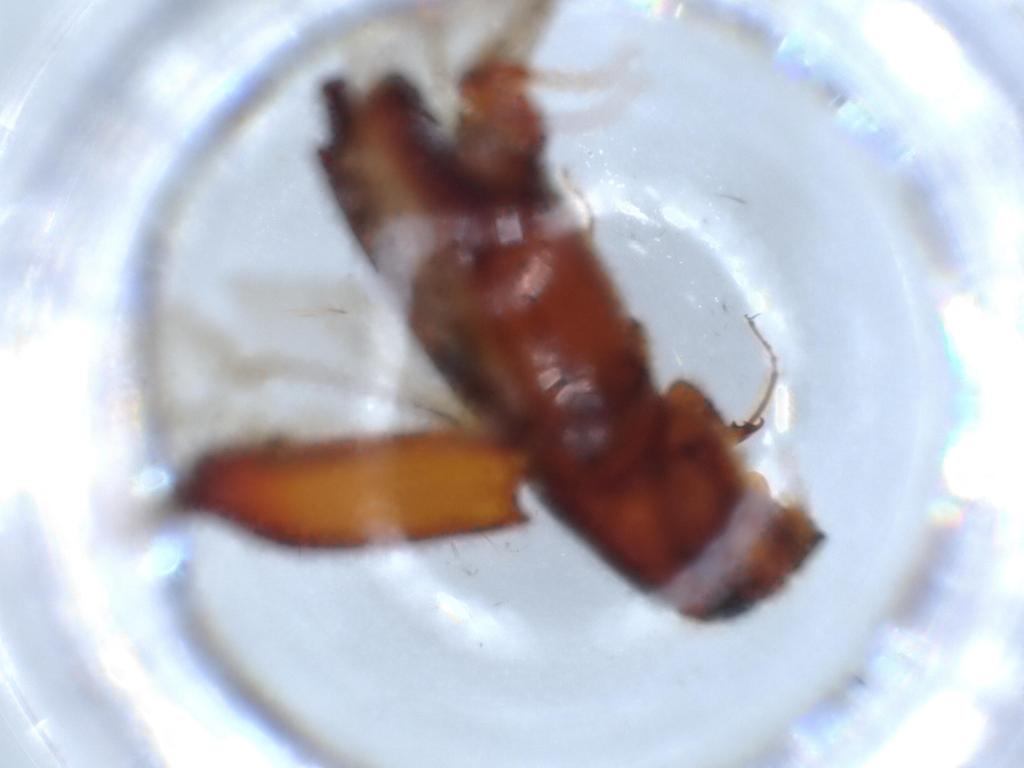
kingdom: Animalia
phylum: Arthropoda
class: Insecta
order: Coleoptera
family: Curculionidae
